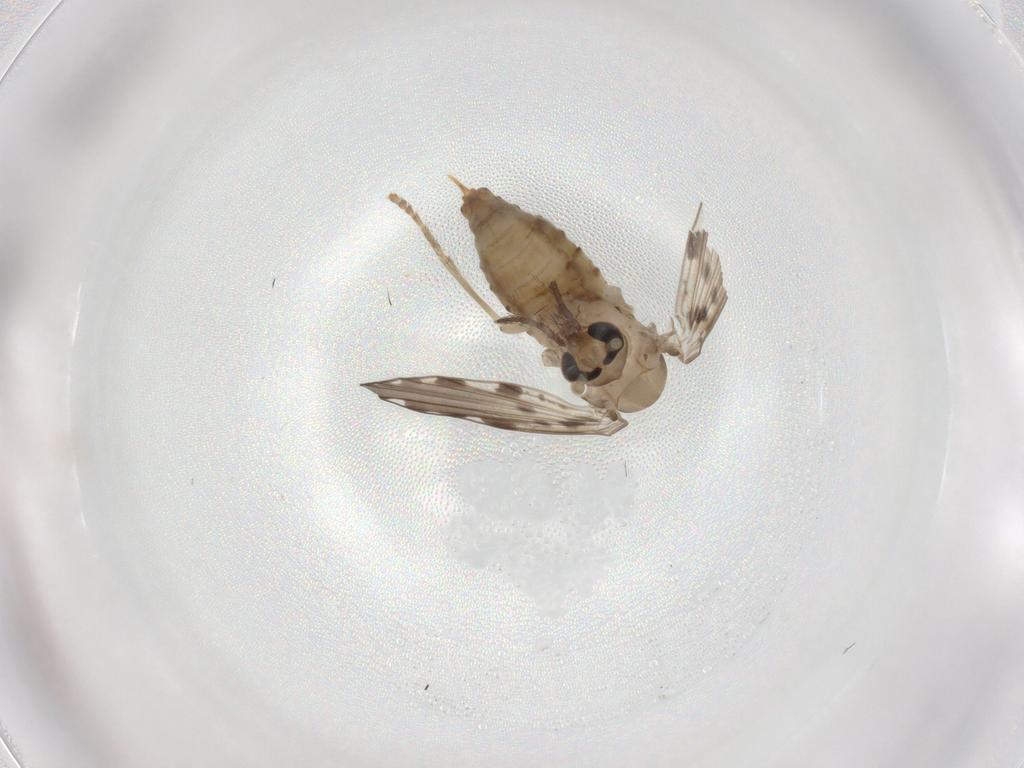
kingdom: Animalia
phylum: Arthropoda
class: Insecta
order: Diptera
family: Psychodidae
